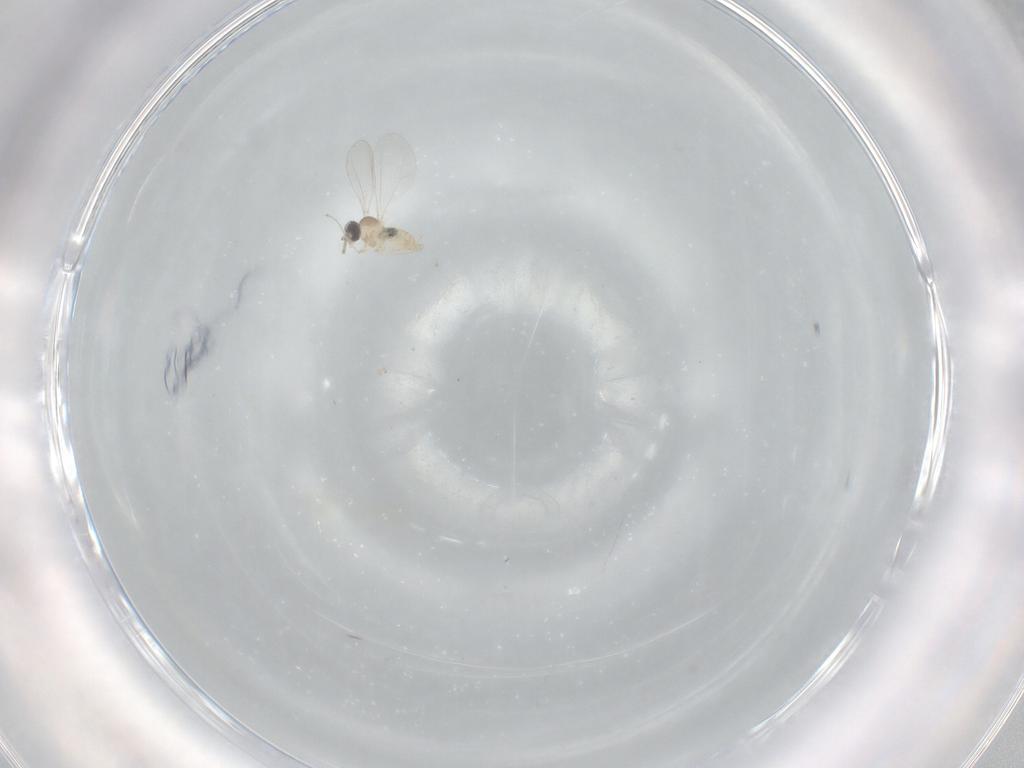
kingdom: Animalia
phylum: Arthropoda
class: Insecta
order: Diptera
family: Cecidomyiidae
